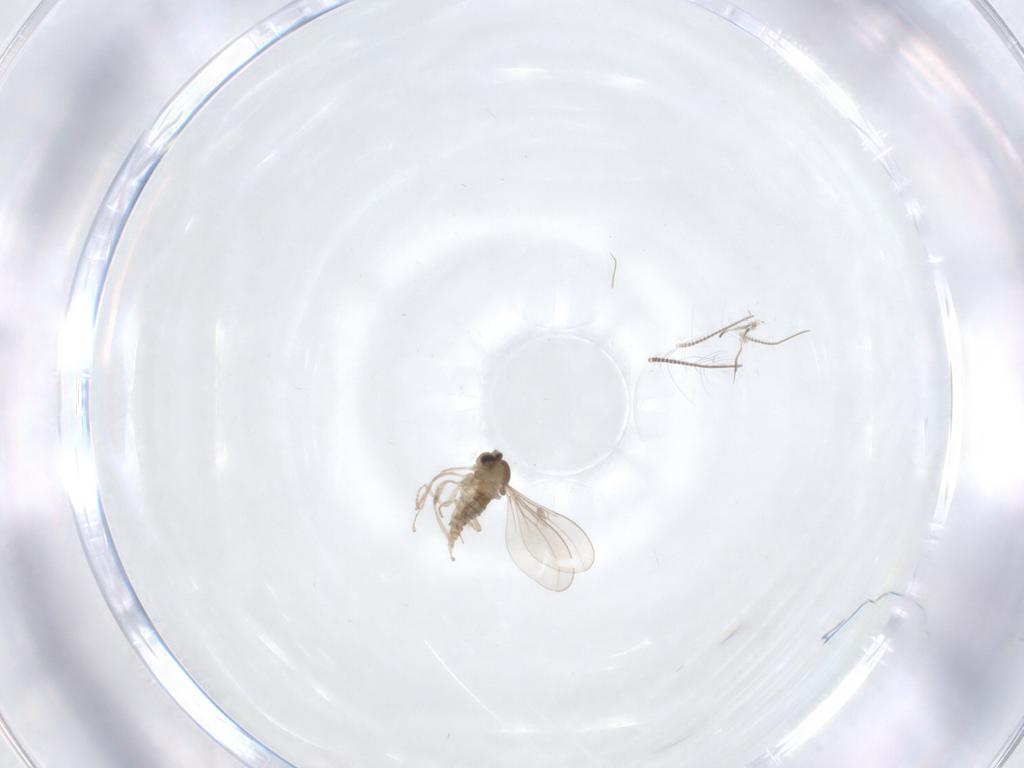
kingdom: Animalia
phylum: Arthropoda
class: Insecta
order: Diptera
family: Cecidomyiidae
